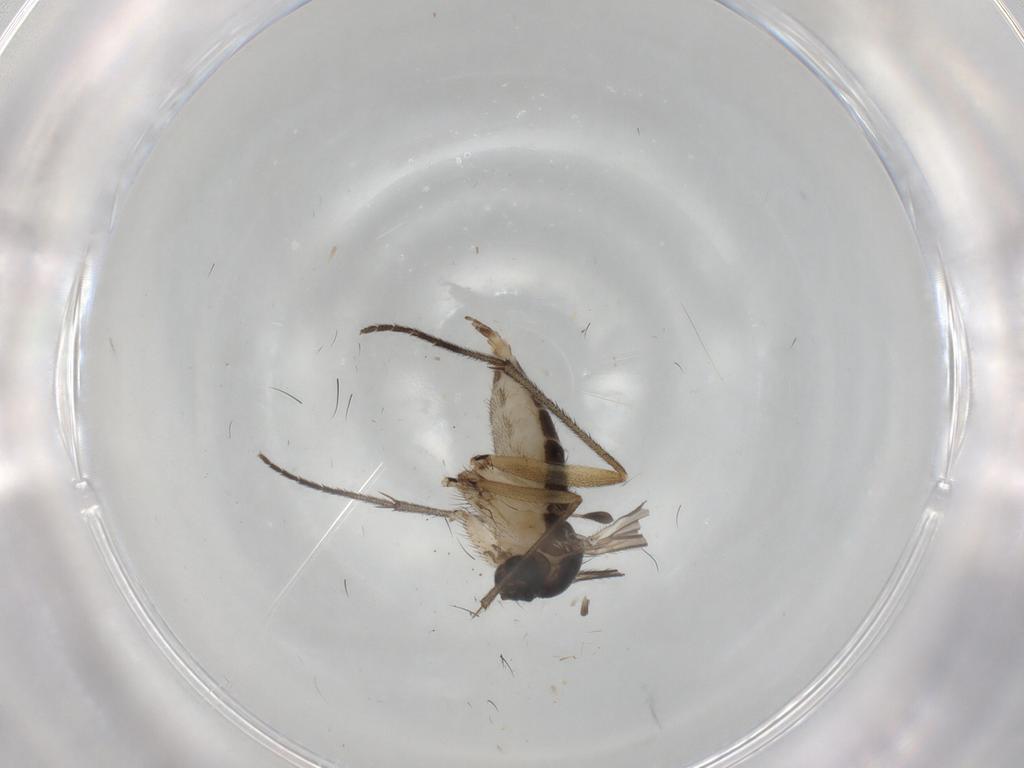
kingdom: Animalia
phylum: Arthropoda
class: Insecta
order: Diptera
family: Sciaridae
